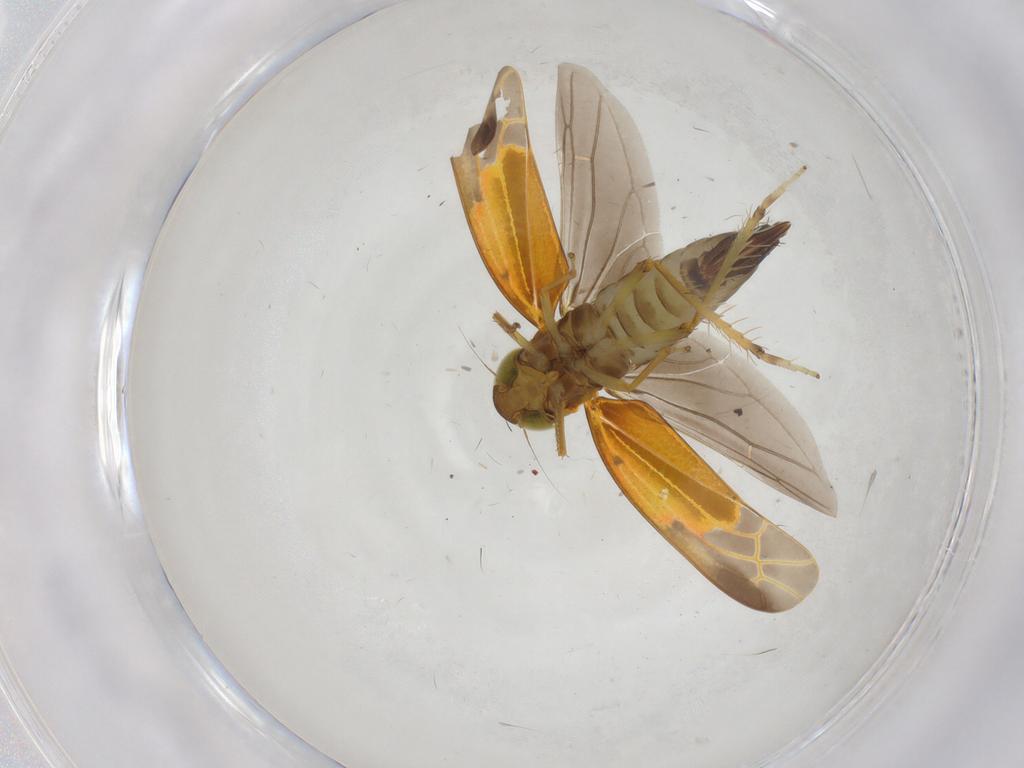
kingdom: Animalia
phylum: Arthropoda
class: Insecta
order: Hemiptera
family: Cicadellidae
